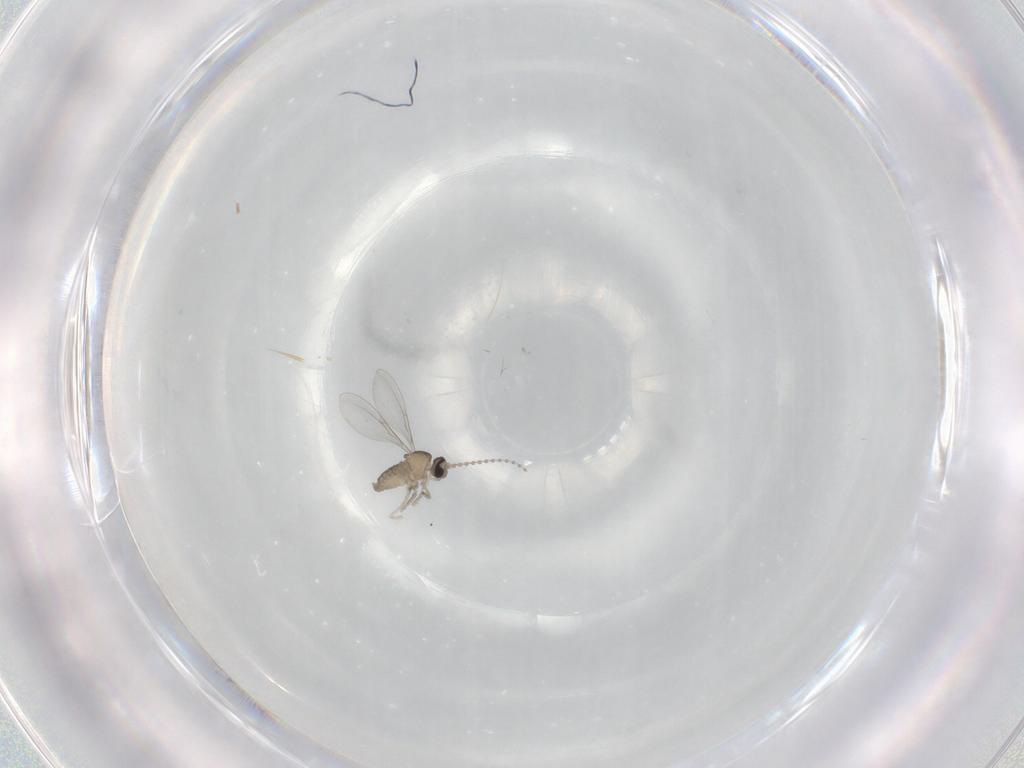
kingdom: Animalia
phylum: Arthropoda
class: Insecta
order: Diptera
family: Cecidomyiidae
